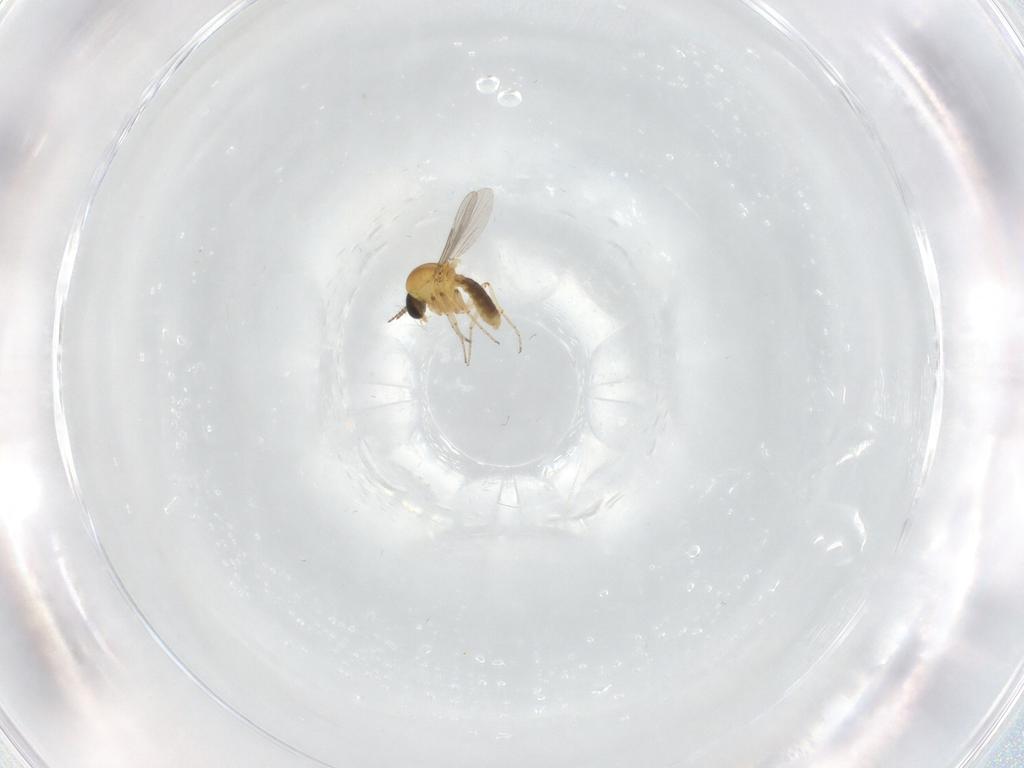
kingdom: Animalia
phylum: Arthropoda
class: Insecta
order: Diptera
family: Ceratopogonidae
